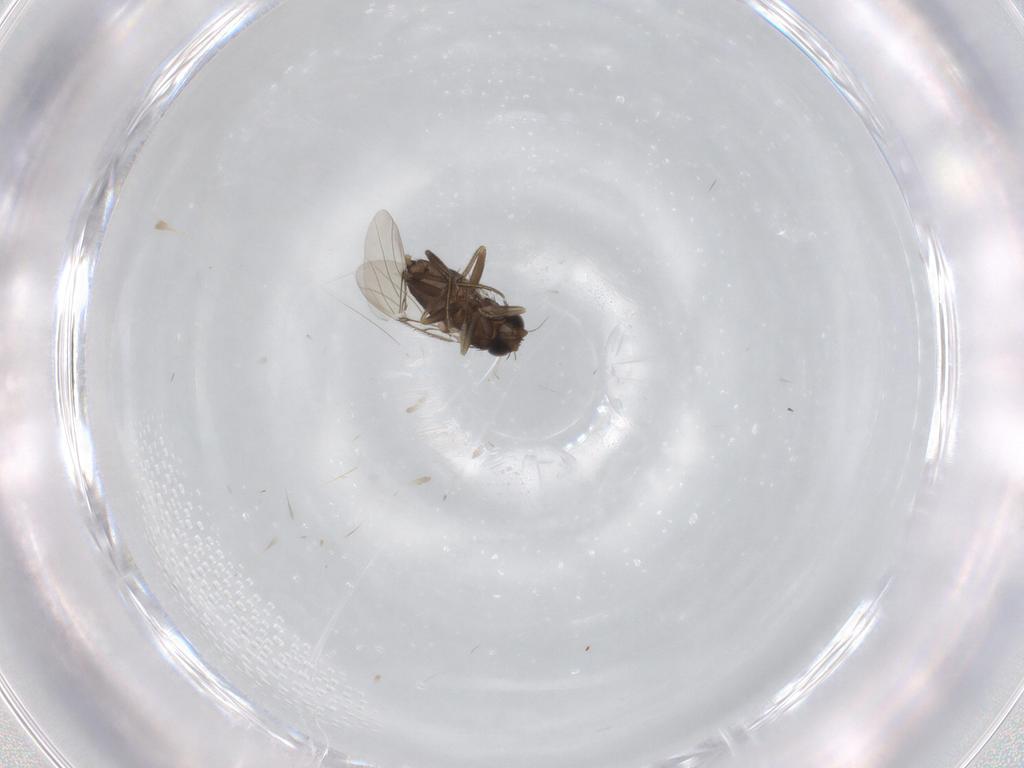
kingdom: Animalia
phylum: Arthropoda
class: Insecta
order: Diptera
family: Phoridae
